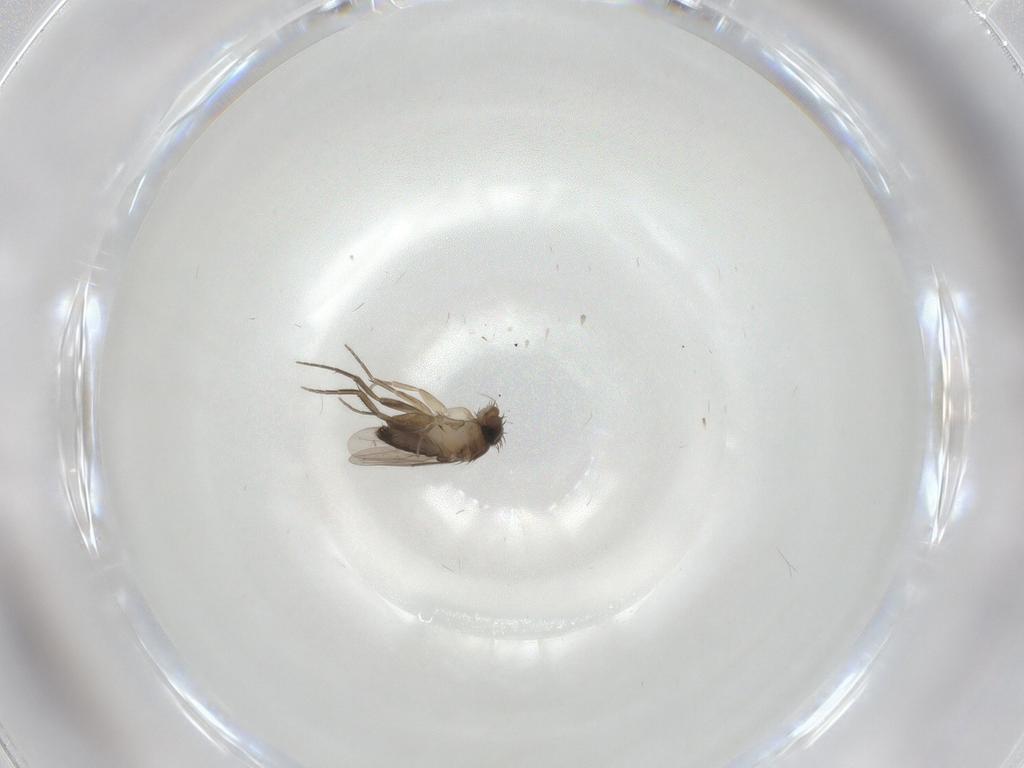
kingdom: Animalia
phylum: Arthropoda
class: Insecta
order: Diptera
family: Phoridae
